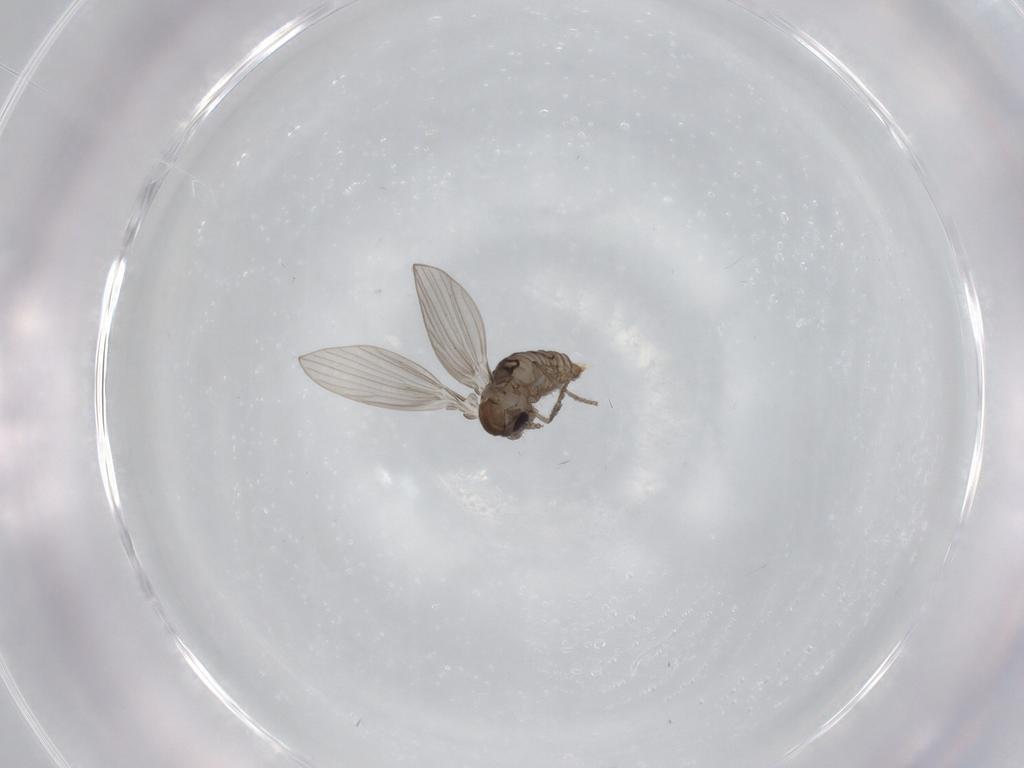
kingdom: Animalia
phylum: Arthropoda
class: Insecta
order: Diptera
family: Psychodidae
